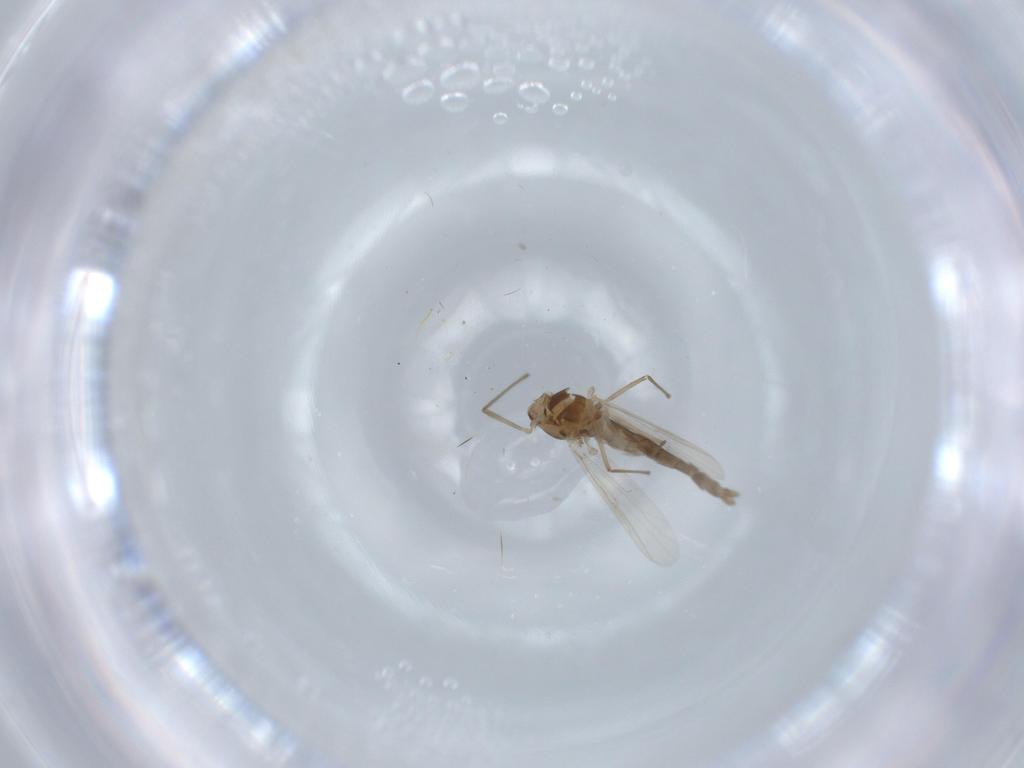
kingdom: Animalia
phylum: Arthropoda
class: Insecta
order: Diptera
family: Chironomidae
